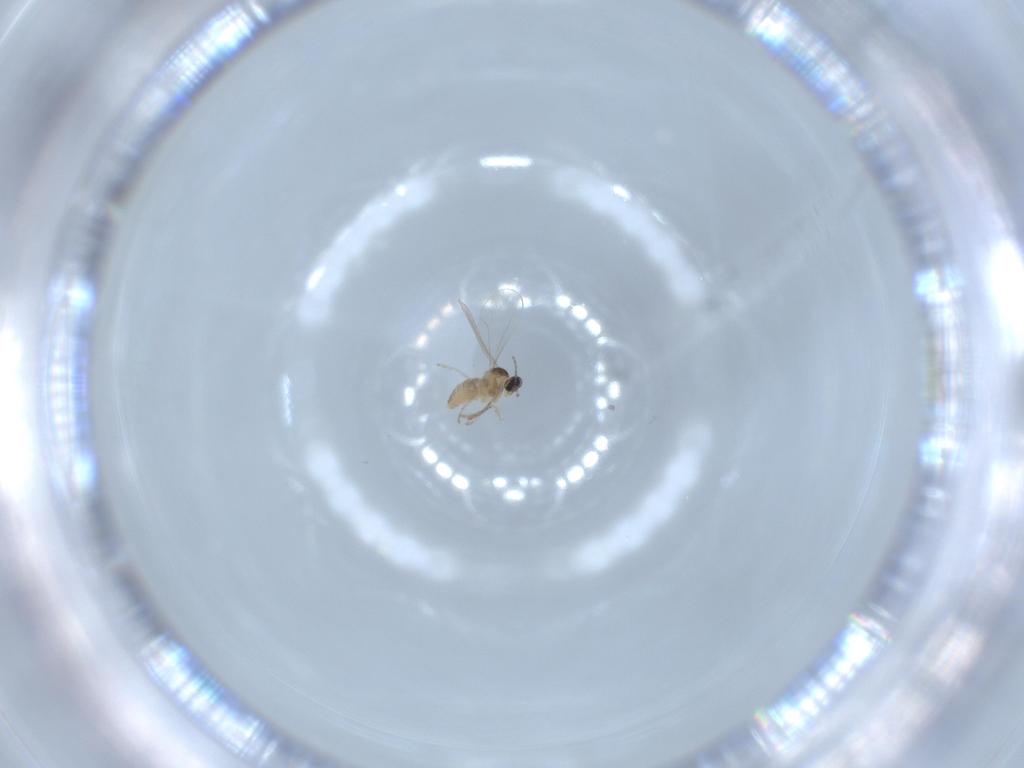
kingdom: Animalia
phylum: Arthropoda
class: Insecta
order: Diptera
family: Cecidomyiidae
